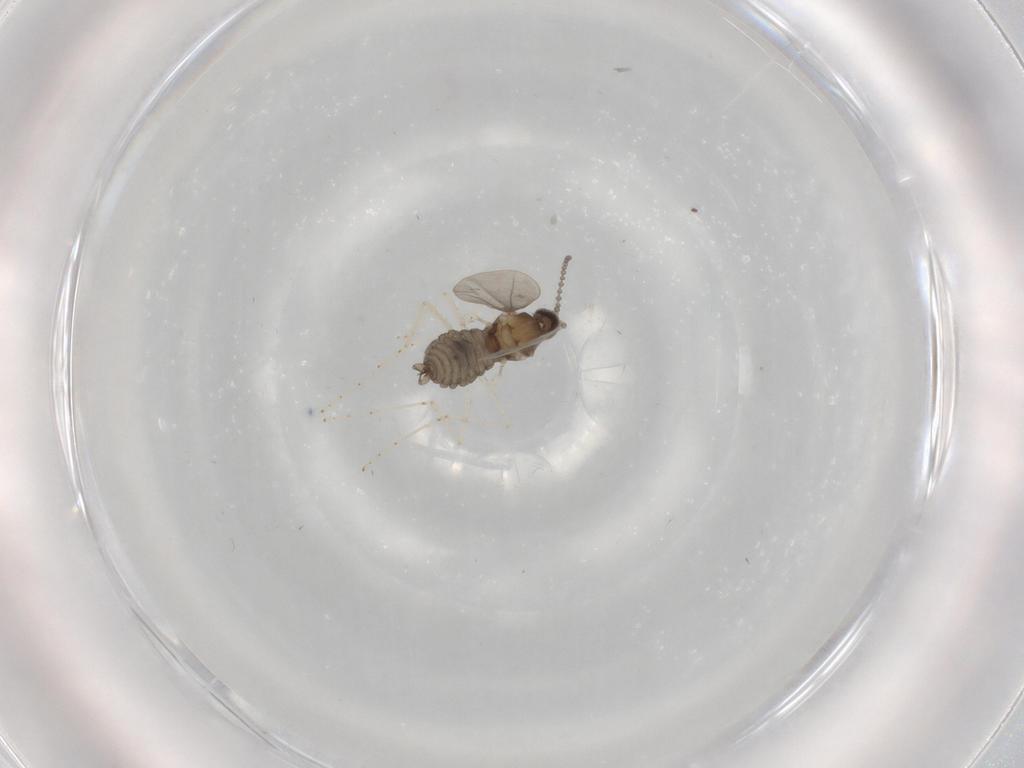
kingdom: Animalia
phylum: Arthropoda
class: Insecta
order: Diptera
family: Cecidomyiidae
